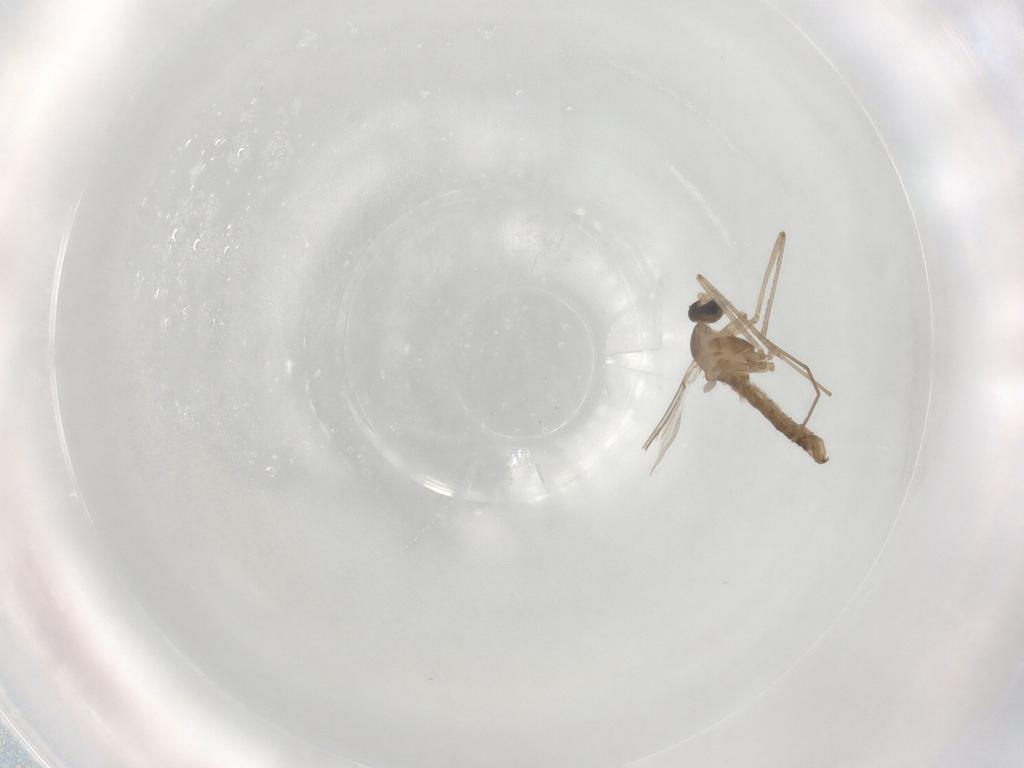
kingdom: Animalia
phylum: Arthropoda
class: Insecta
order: Diptera
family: Cecidomyiidae
